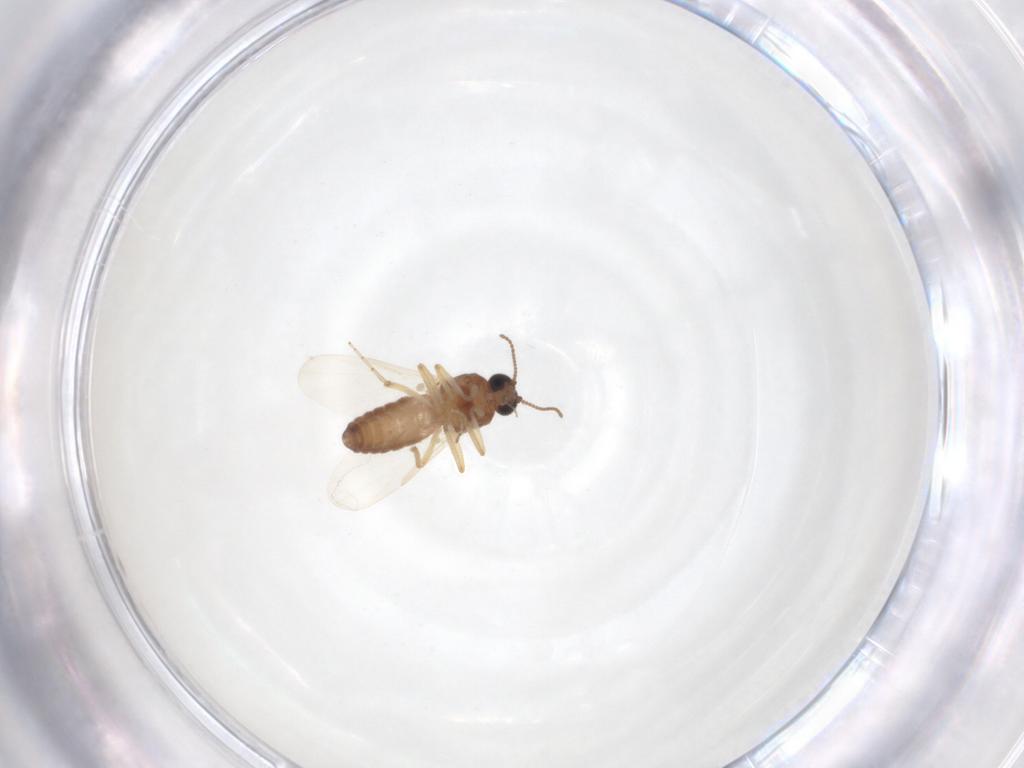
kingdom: Animalia
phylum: Arthropoda
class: Insecta
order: Diptera
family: Ceratopogonidae
